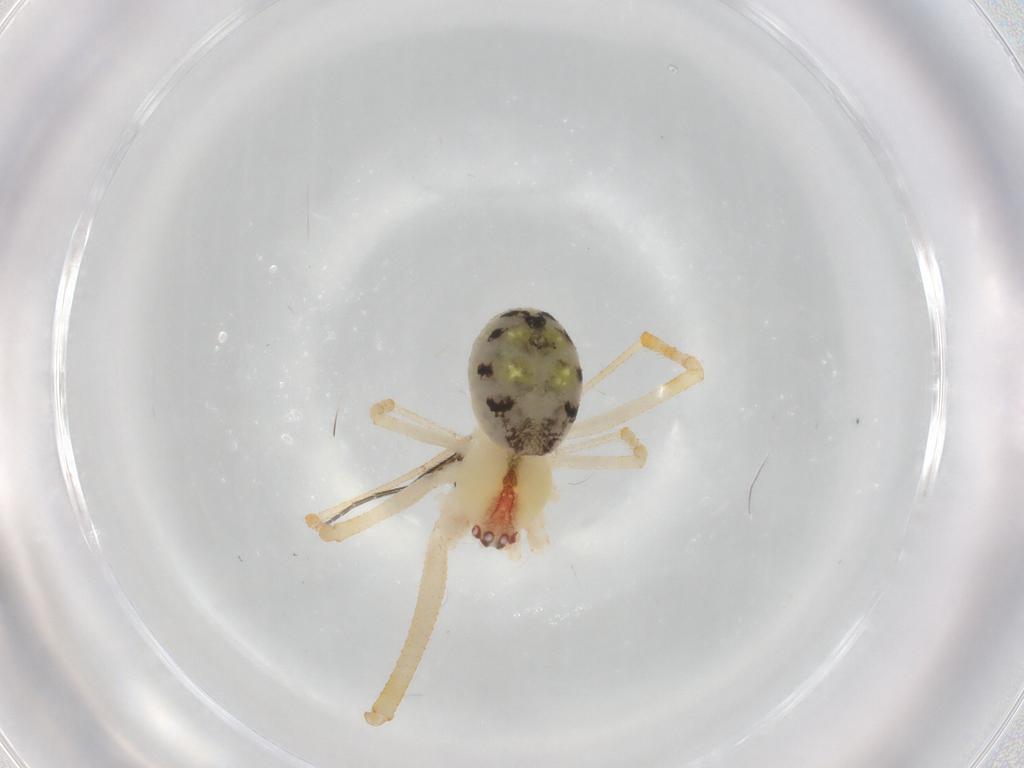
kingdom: Animalia
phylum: Arthropoda
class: Arachnida
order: Araneae
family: Theridiidae
